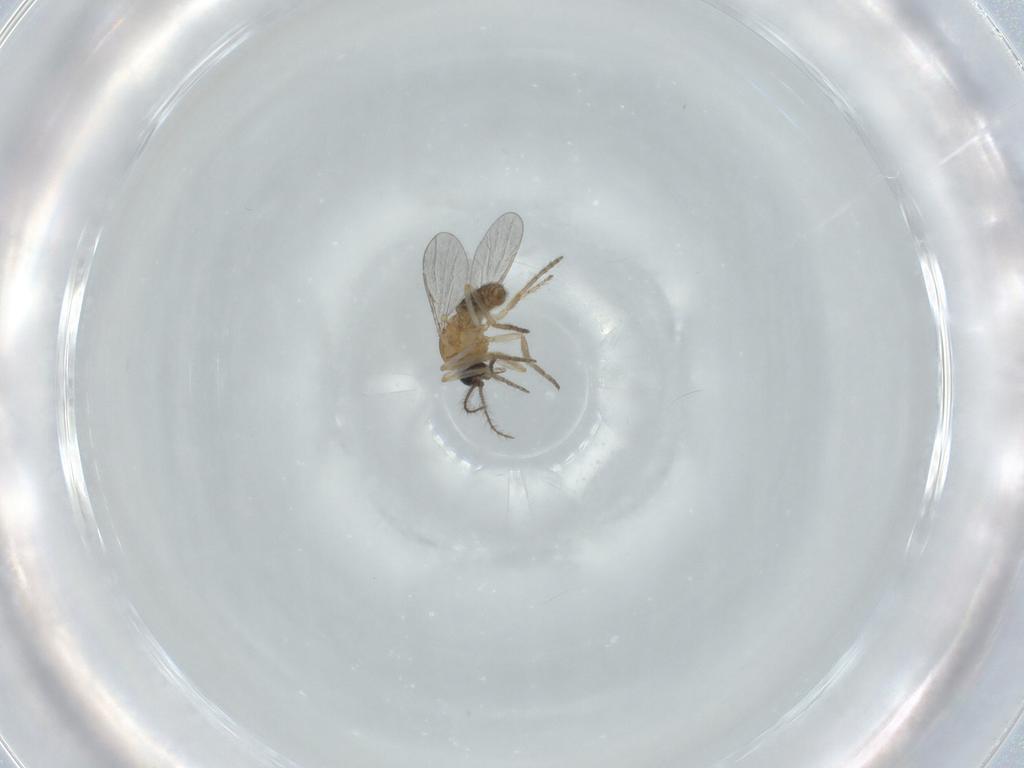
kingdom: Animalia
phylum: Arthropoda
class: Insecta
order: Diptera
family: Ceratopogonidae
